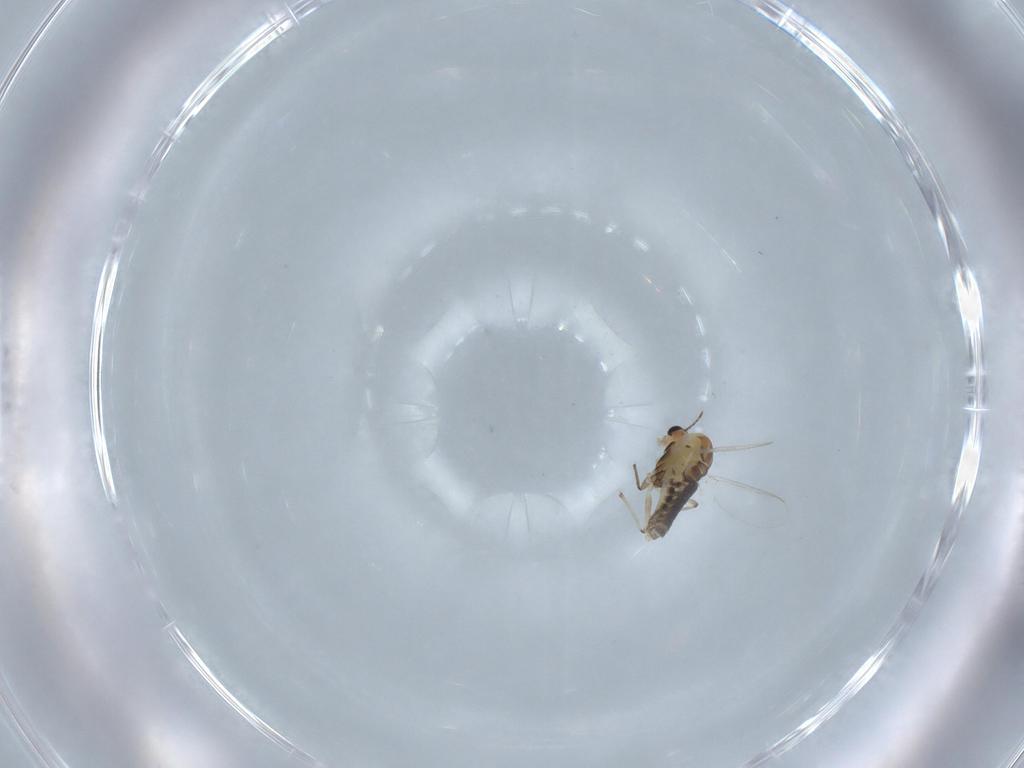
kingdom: Animalia
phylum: Arthropoda
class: Insecta
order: Diptera
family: Chironomidae
